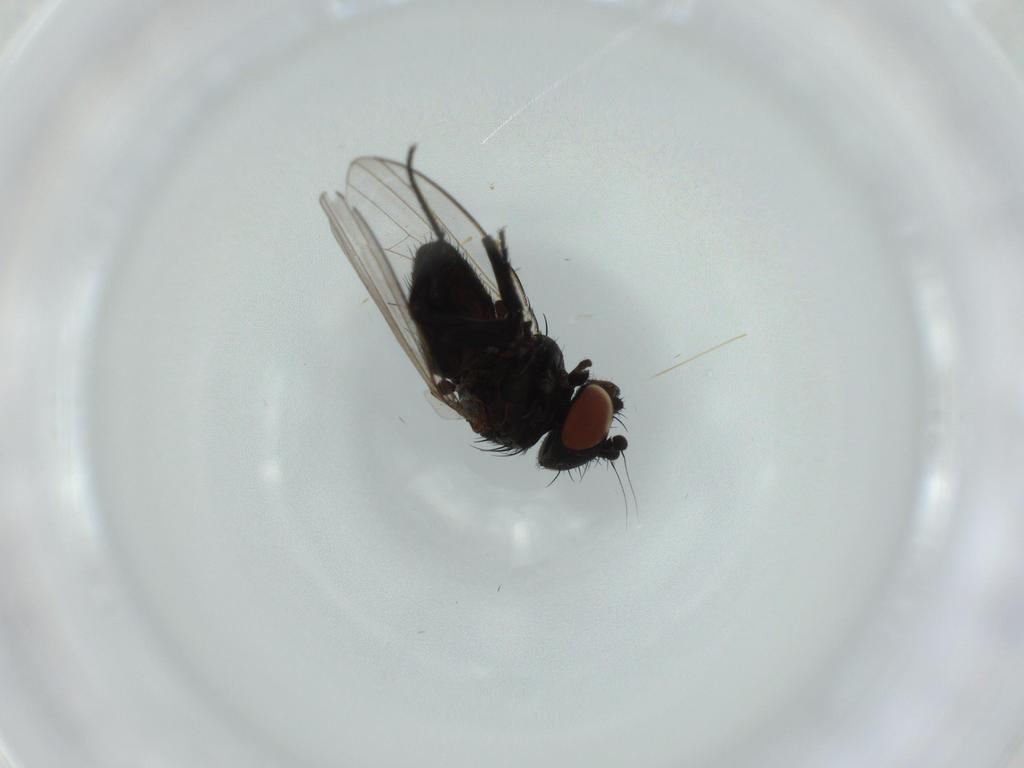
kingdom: Animalia
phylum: Arthropoda
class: Insecta
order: Diptera
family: Milichiidae
